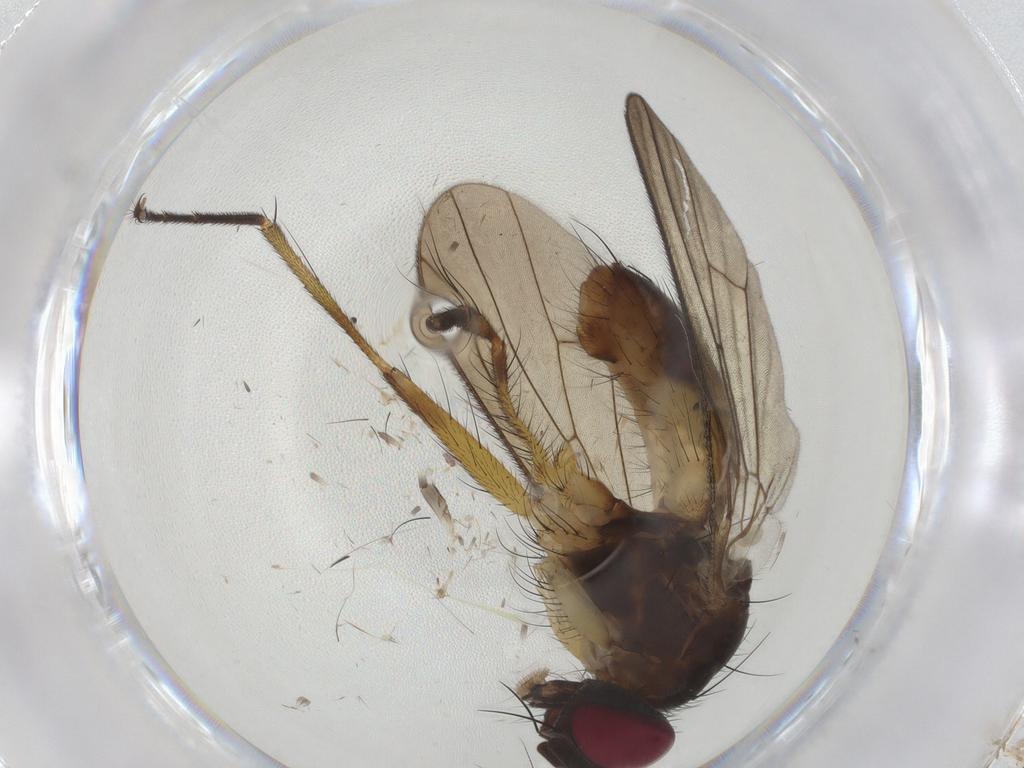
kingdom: Animalia
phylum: Arthropoda
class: Insecta
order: Diptera
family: Muscidae
